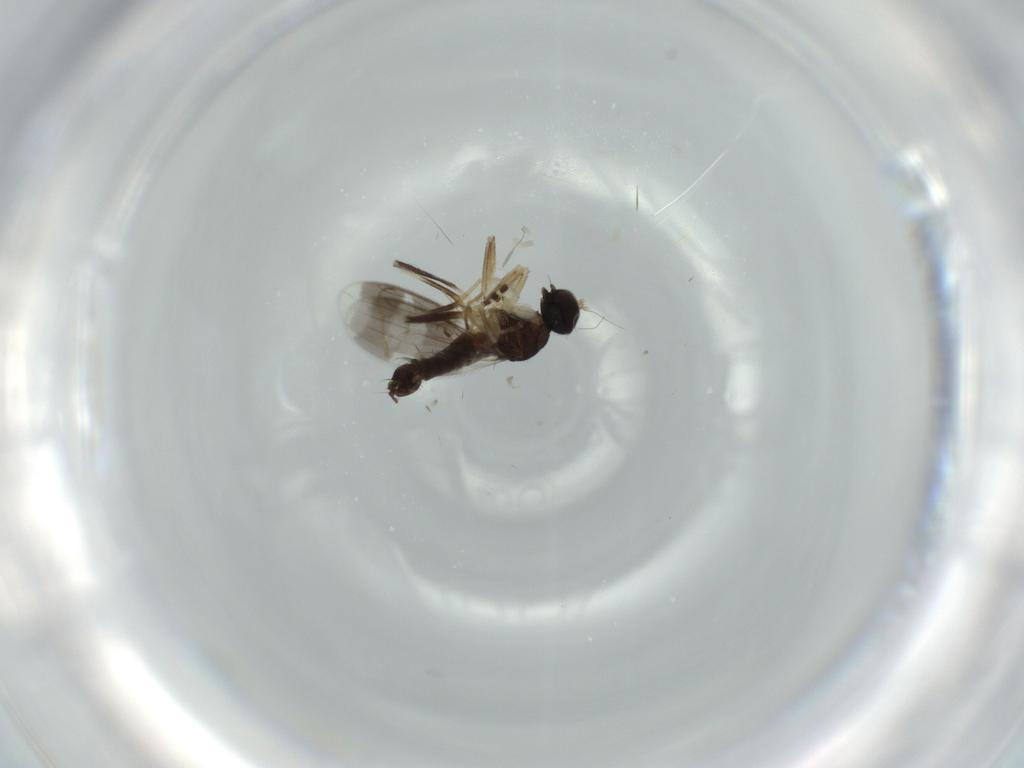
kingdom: Animalia
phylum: Arthropoda
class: Insecta
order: Diptera
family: Hybotidae
